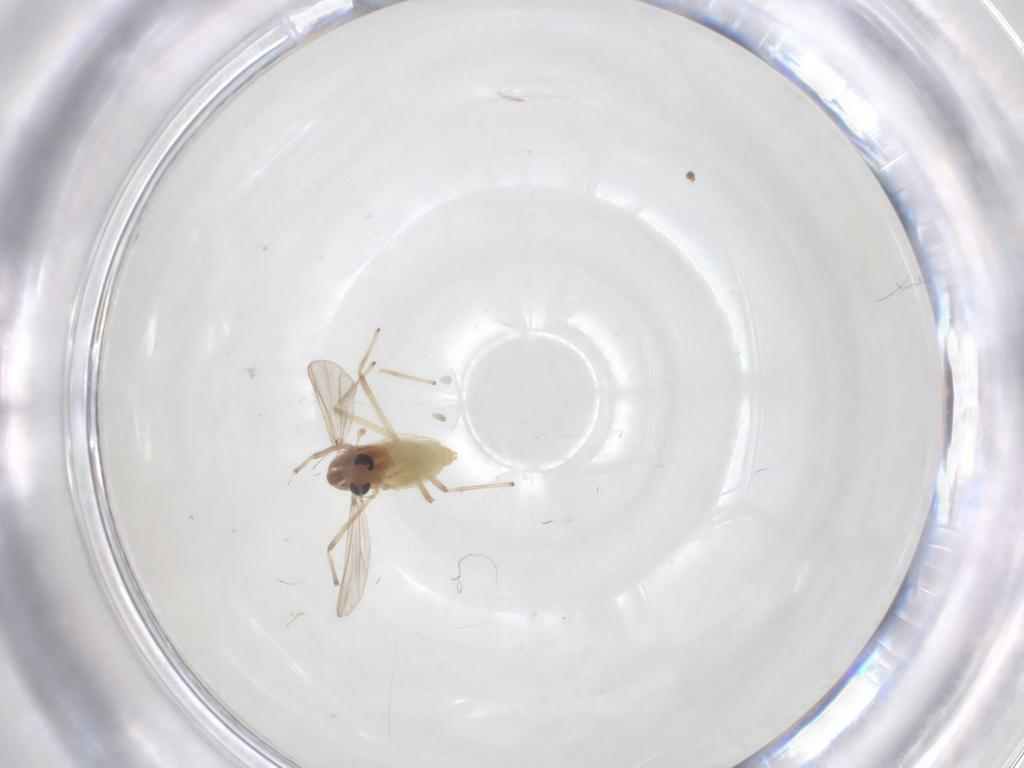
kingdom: Animalia
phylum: Arthropoda
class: Insecta
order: Diptera
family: Chironomidae
